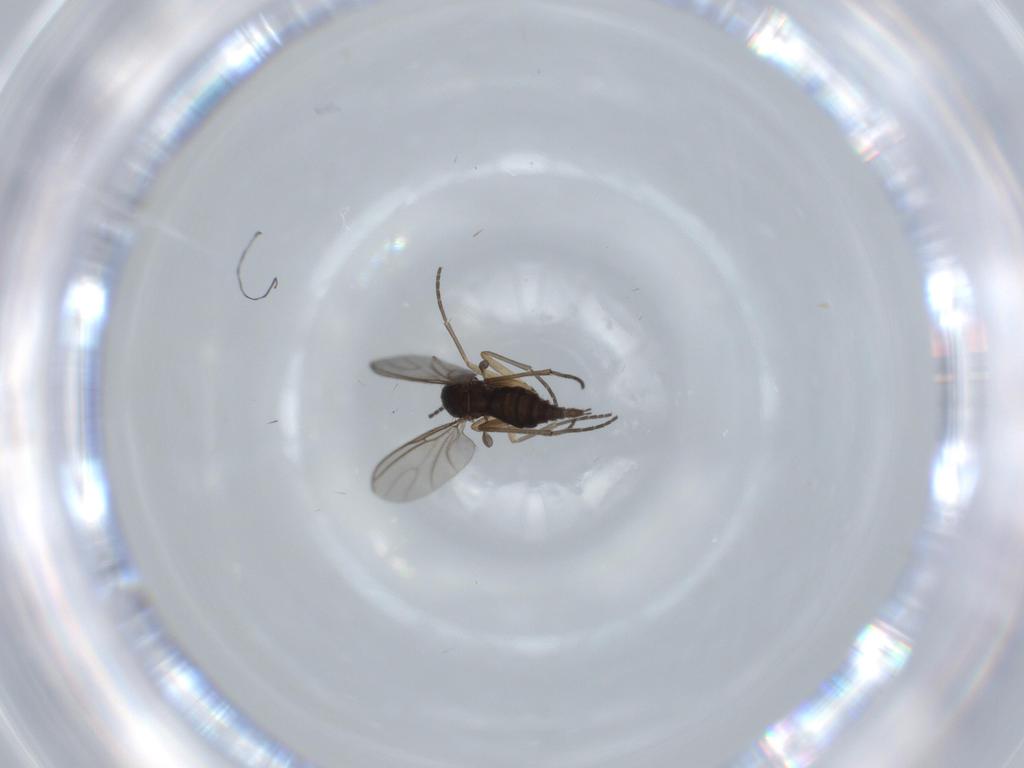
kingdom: Animalia
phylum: Arthropoda
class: Insecta
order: Diptera
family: Sciaridae
